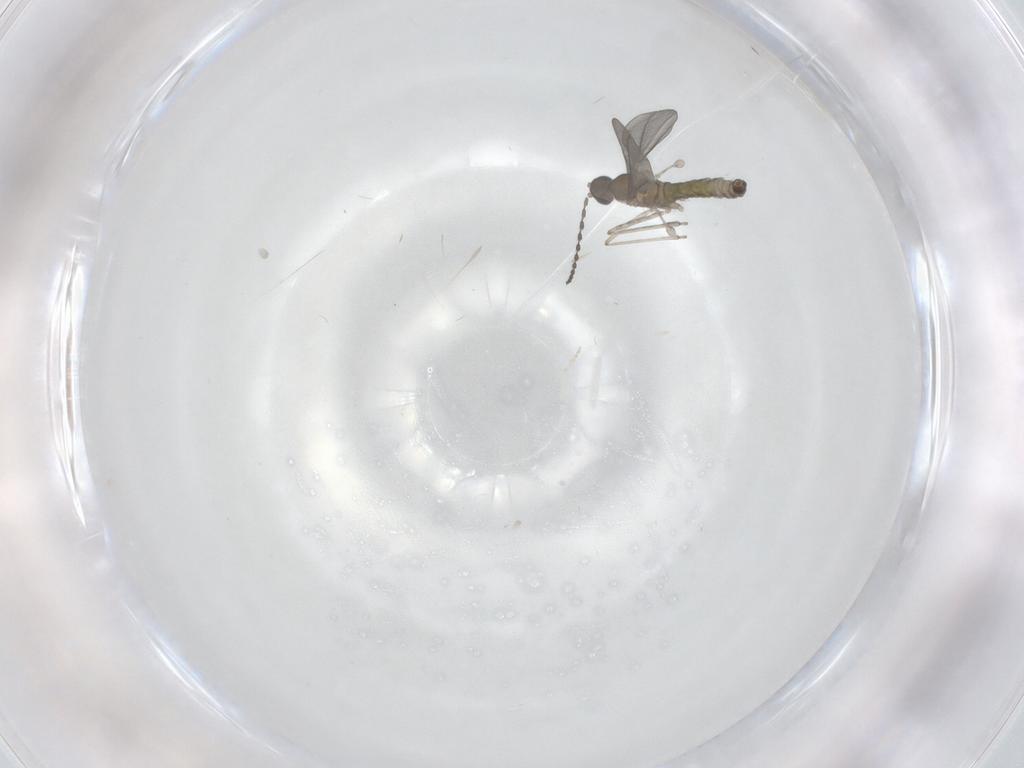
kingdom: Animalia
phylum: Arthropoda
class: Insecta
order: Diptera
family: Cecidomyiidae
